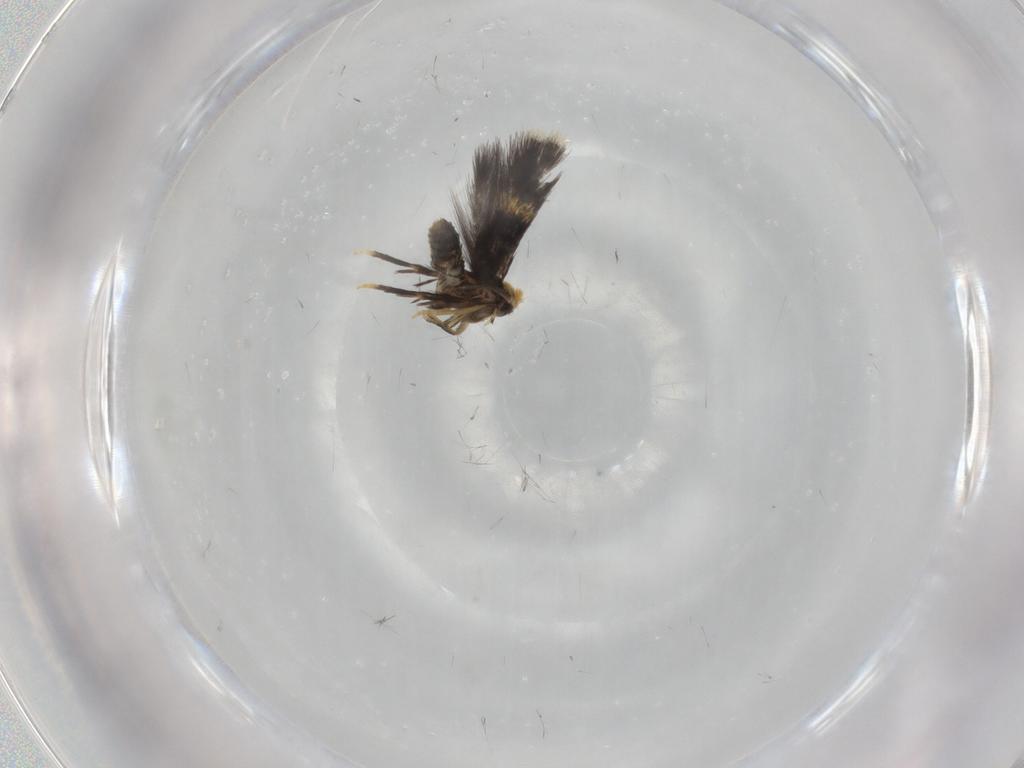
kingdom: Animalia
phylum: Arthropoda
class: Insecta
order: Lepidoptera
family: Nepticulidae
